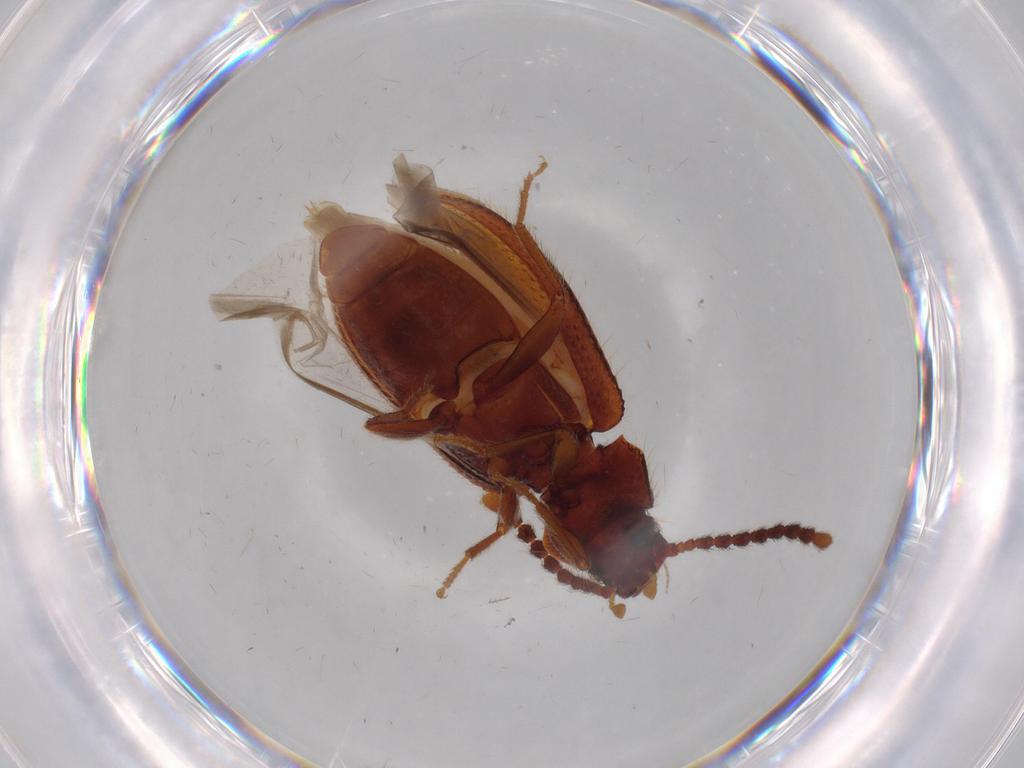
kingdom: Animalia
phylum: Arthropoda
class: Insecta
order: Coleoptera
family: Tenebrionidae
